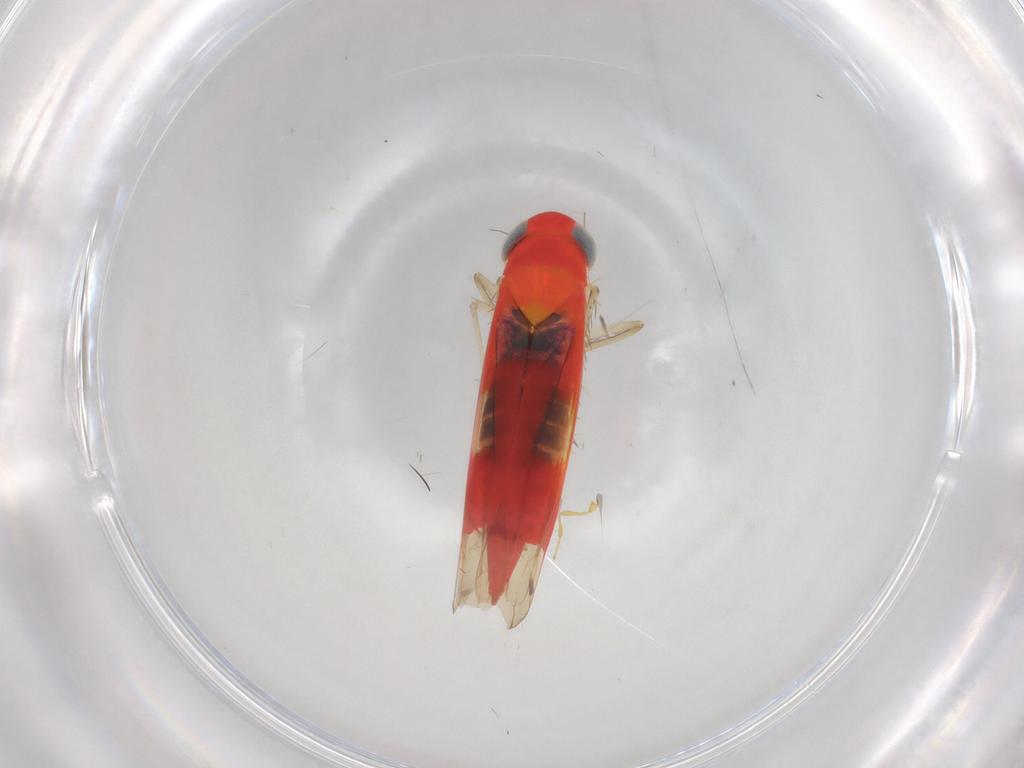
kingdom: Animalia
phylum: Arthropoda
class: Insecta
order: Hemiptera
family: Cicadellidae
